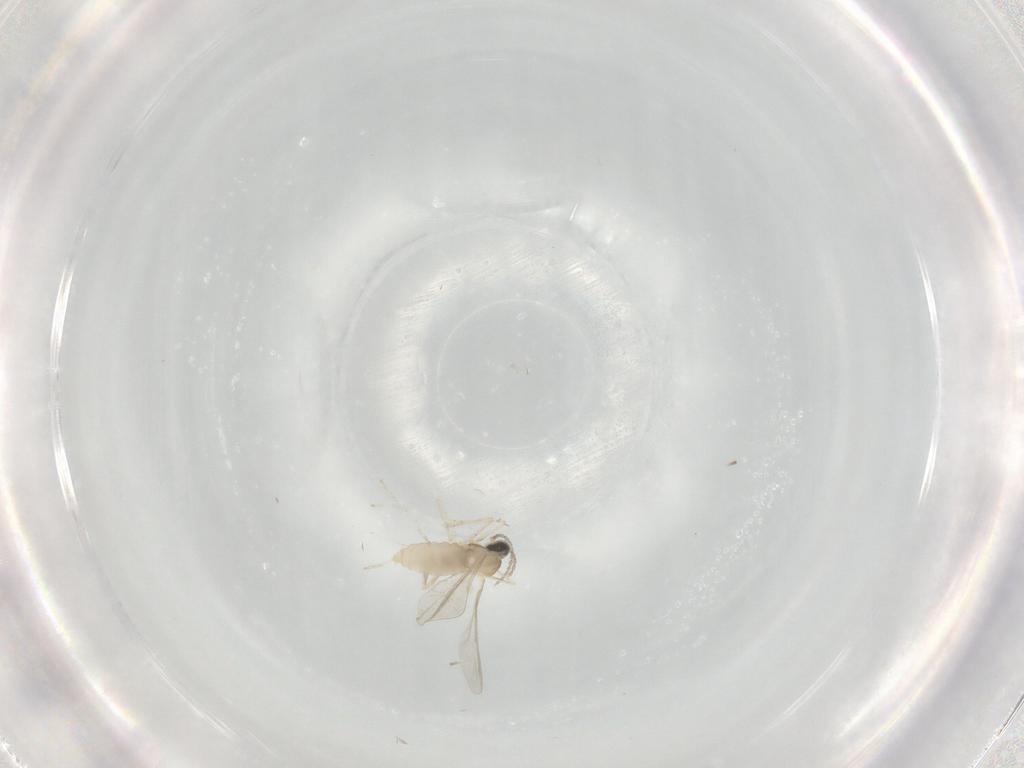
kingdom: Animalia
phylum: Arthropoda
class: Insecta
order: Diptera
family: Cecidomyiidae
